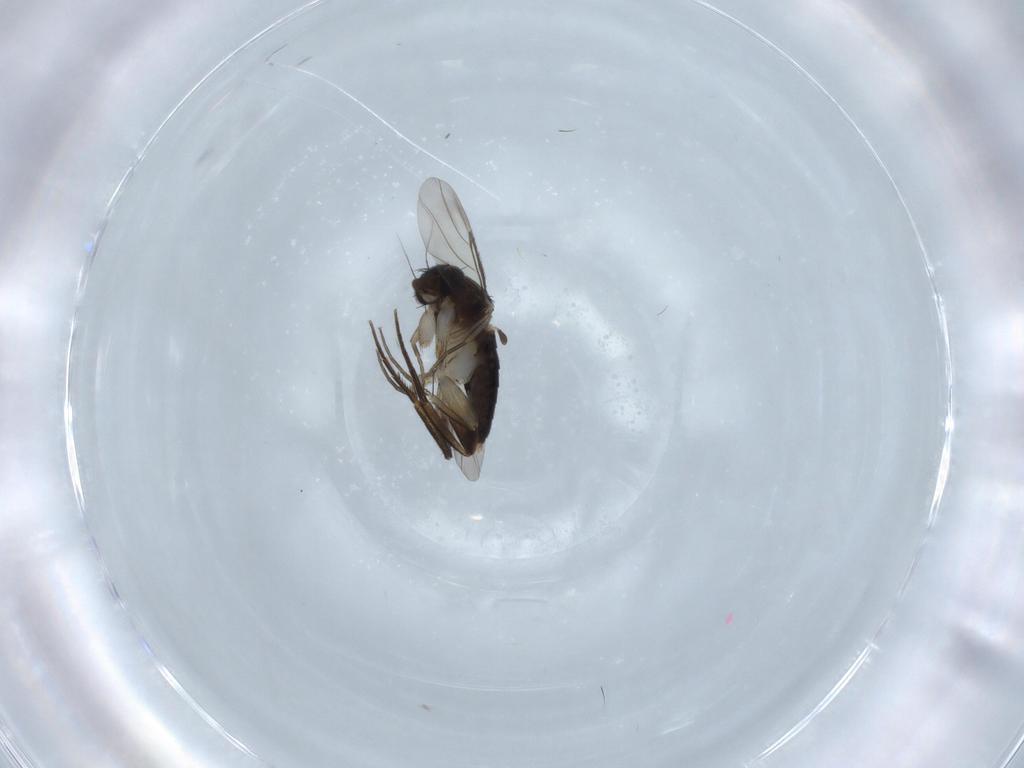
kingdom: Animalia
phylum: Arthropoda
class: Insecta
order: Diptera
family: Phoridae
